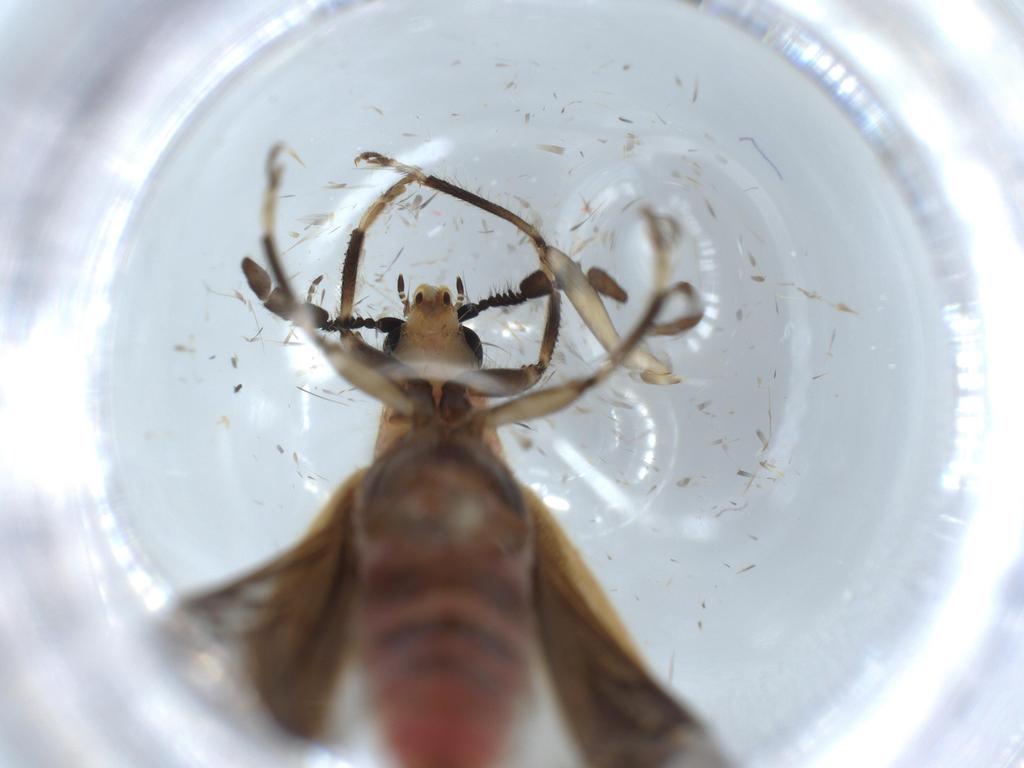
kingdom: Animalia
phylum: Arthropoda
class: Insecta
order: Coleoptera
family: Cleridae
